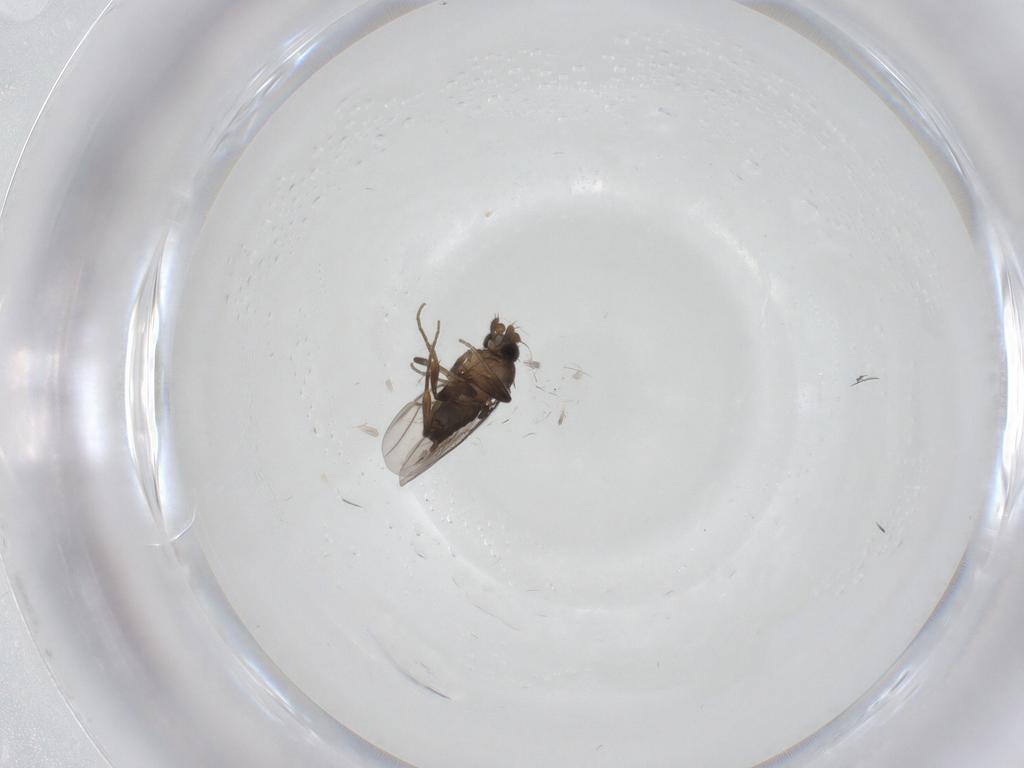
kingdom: Animalia
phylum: Arthropoda
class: Insecta
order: Diptera
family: Phoridae
